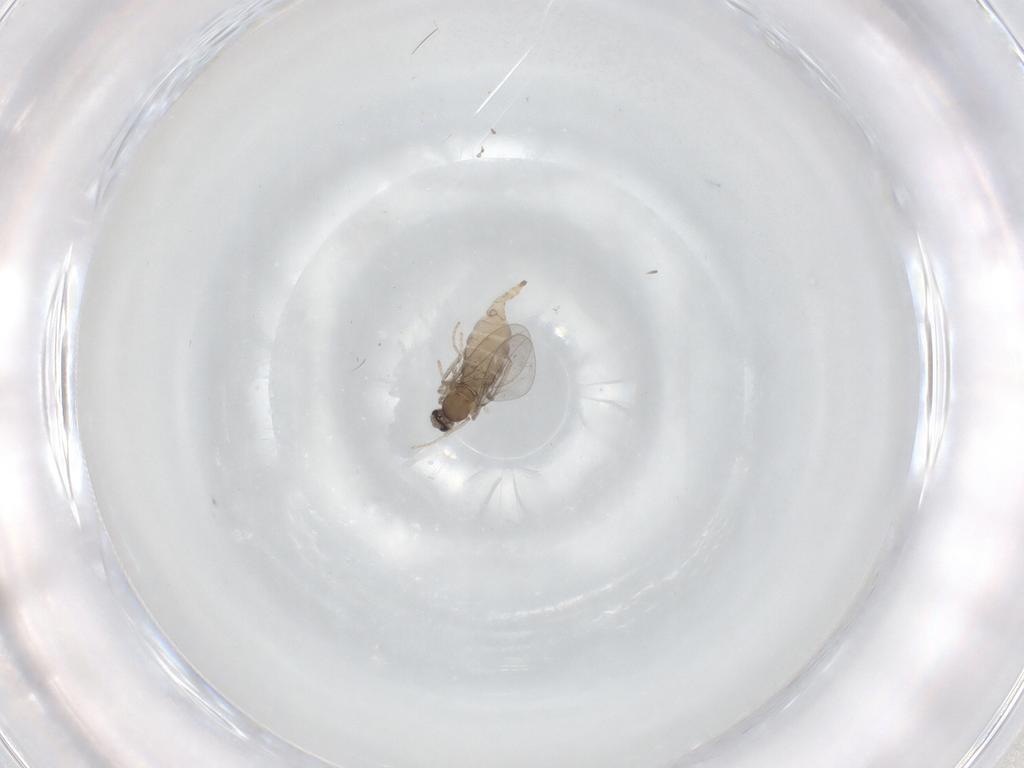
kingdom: Animalia
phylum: Arthropoda
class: Insecta
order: Diptera
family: Cecidomyiidae
